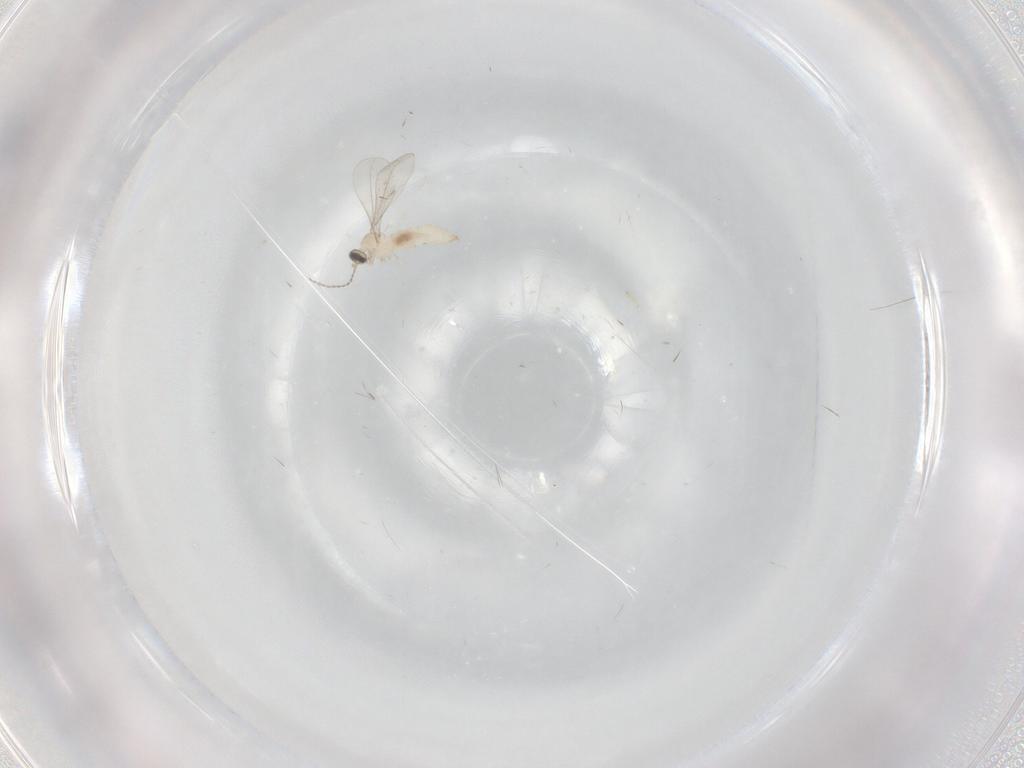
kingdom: Animalia
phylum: Arthropoda
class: Insecta
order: Diptera
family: Cecidomyiidae
